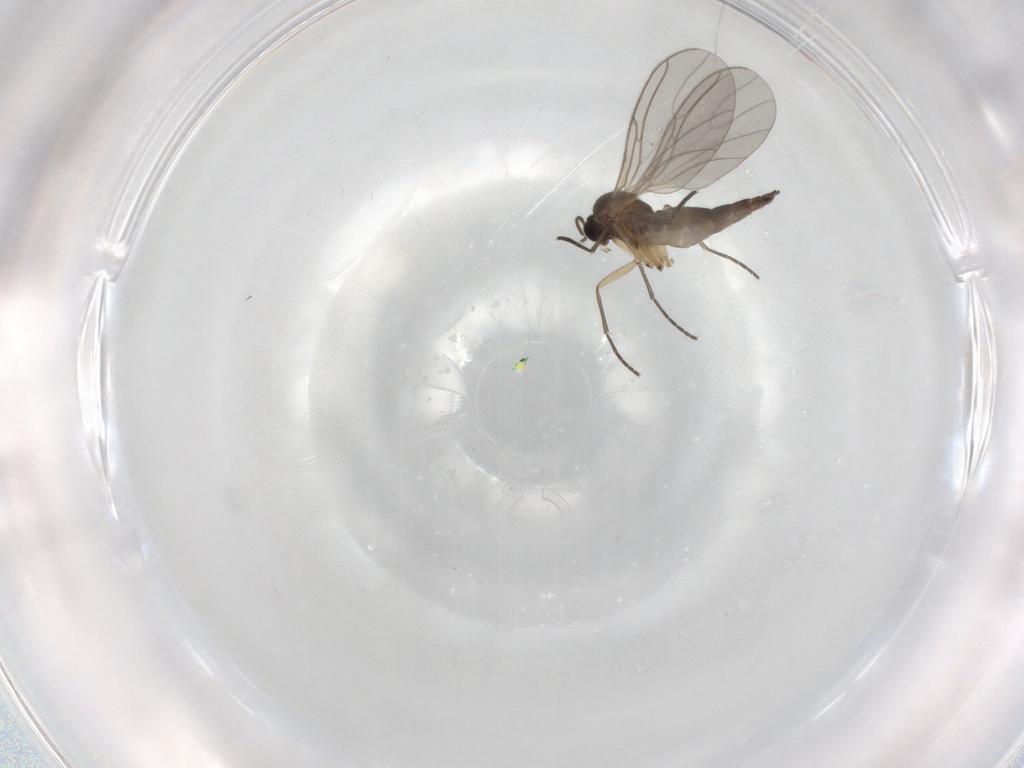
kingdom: Animalia
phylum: Arthropoda
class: Insecta
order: Diptera
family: Sciaridae
